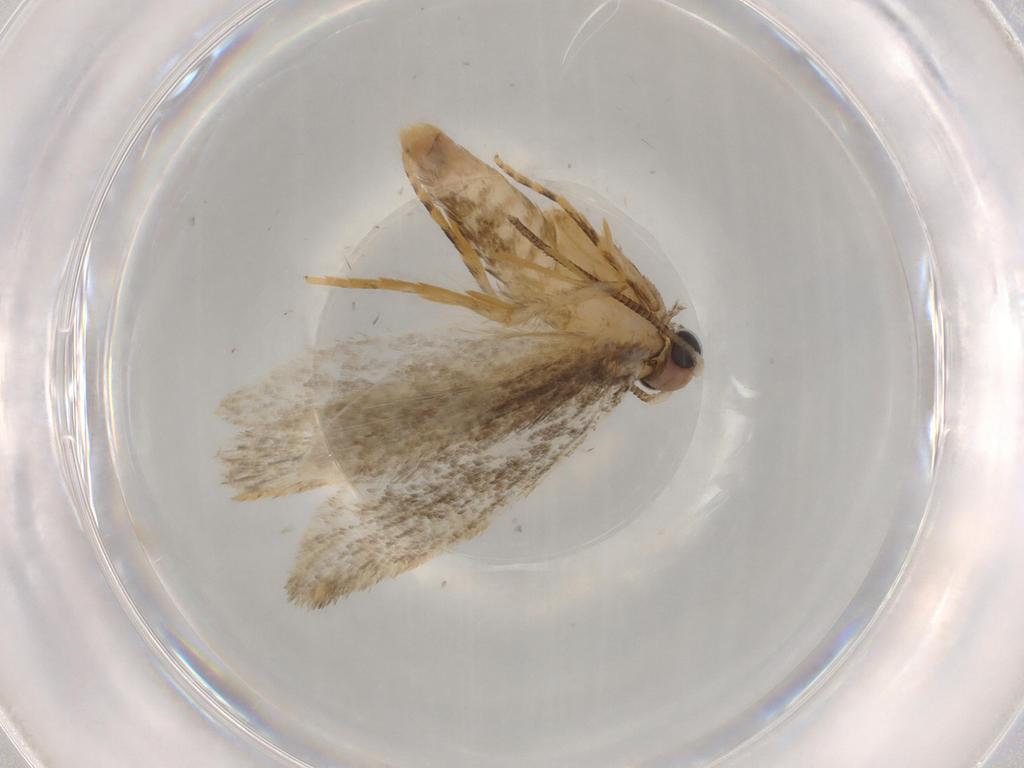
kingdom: Animalia
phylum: Arthropoda
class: Insecta
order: Lepidoptera
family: Tineidae
